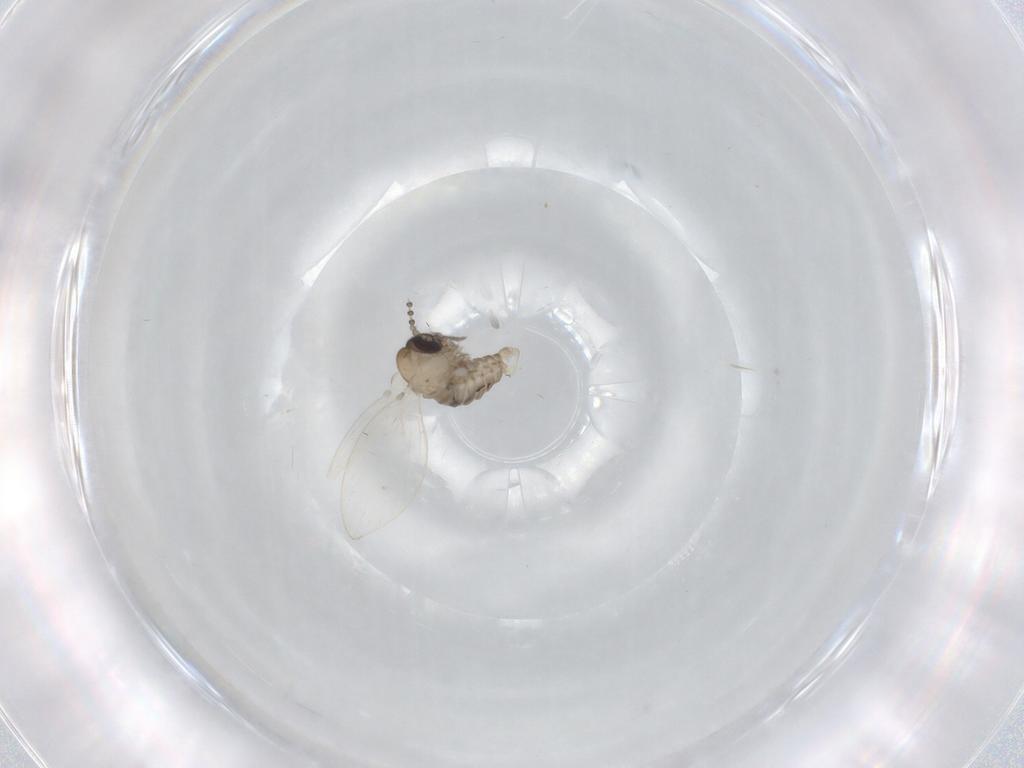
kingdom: Animalia
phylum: Arthropoda
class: Insecta
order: Diptera
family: Psychodidae
